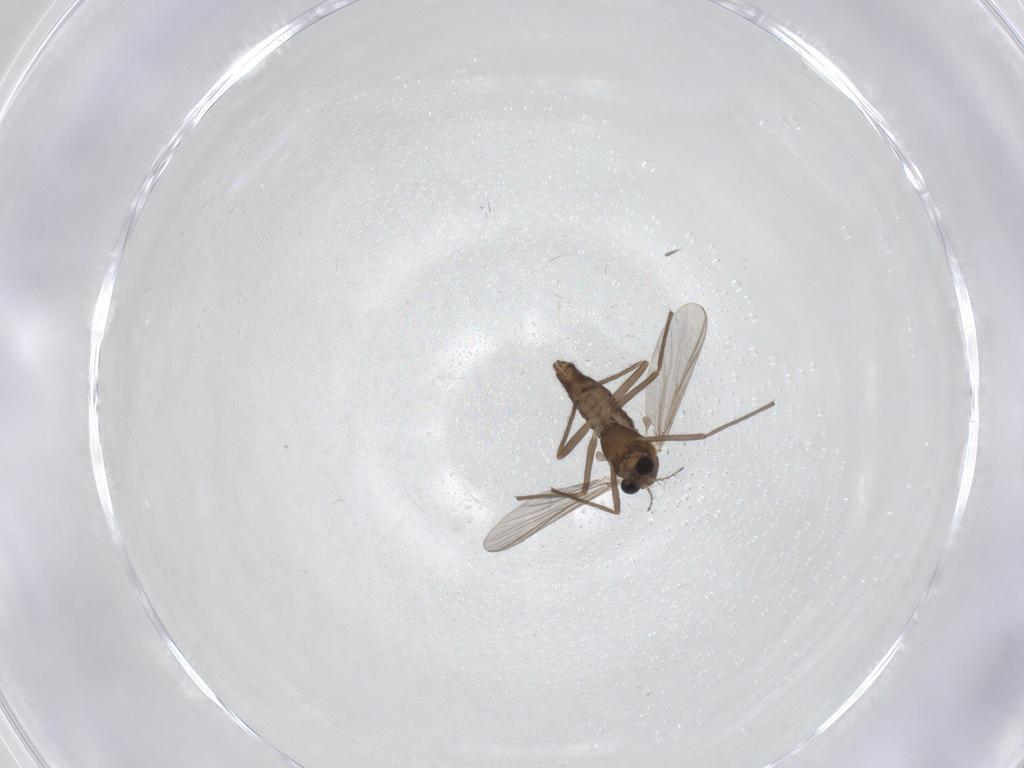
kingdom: Animalia
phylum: Arthropoda
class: Insecta
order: Diptera
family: Chironomidae
